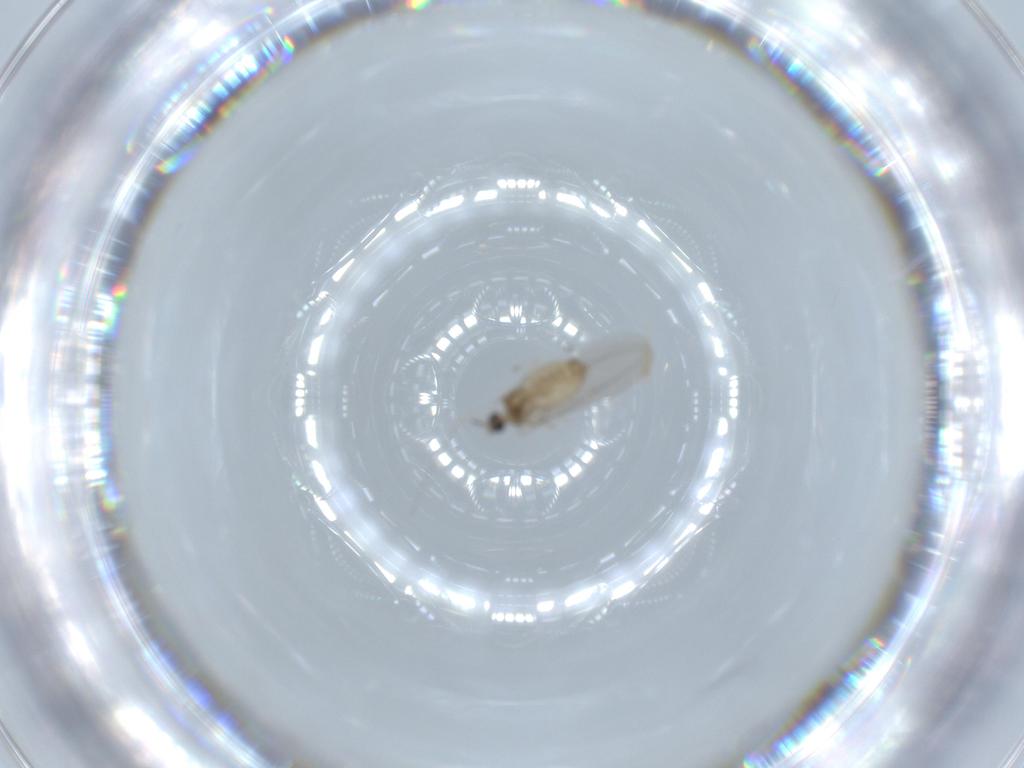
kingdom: Animalia
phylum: Arthropoda
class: Insecta
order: Diptera
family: Cecidomyiidae
